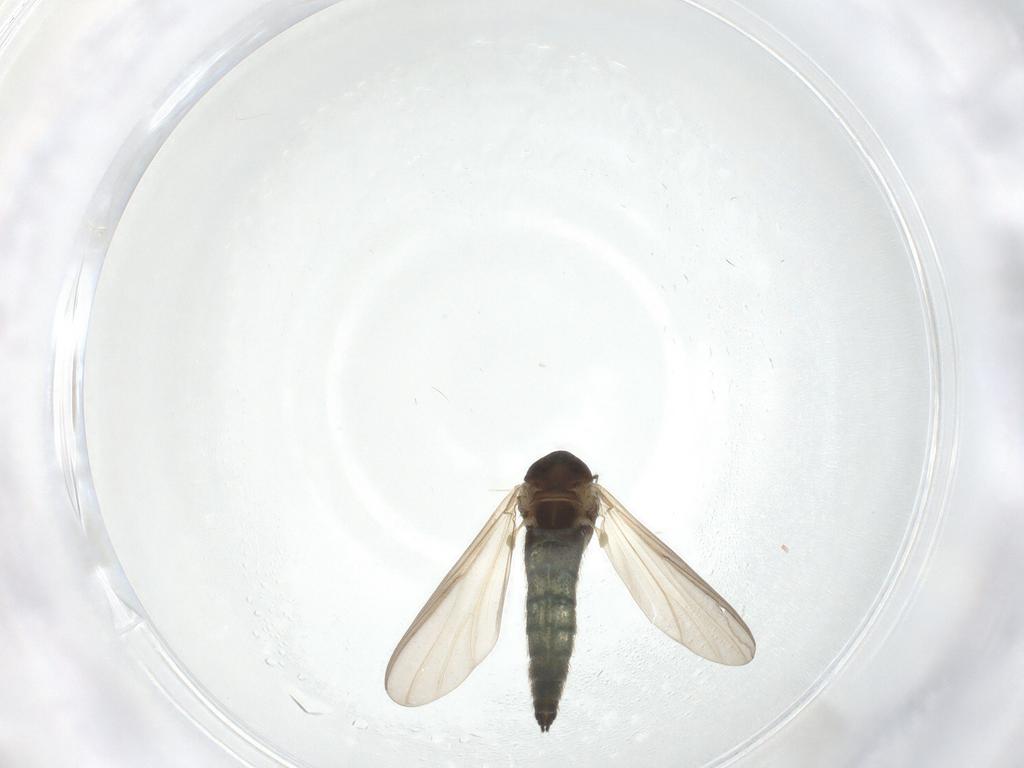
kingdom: Animalia
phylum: Arthropoda
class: Insecta
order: Diptera
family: Chironomidae
